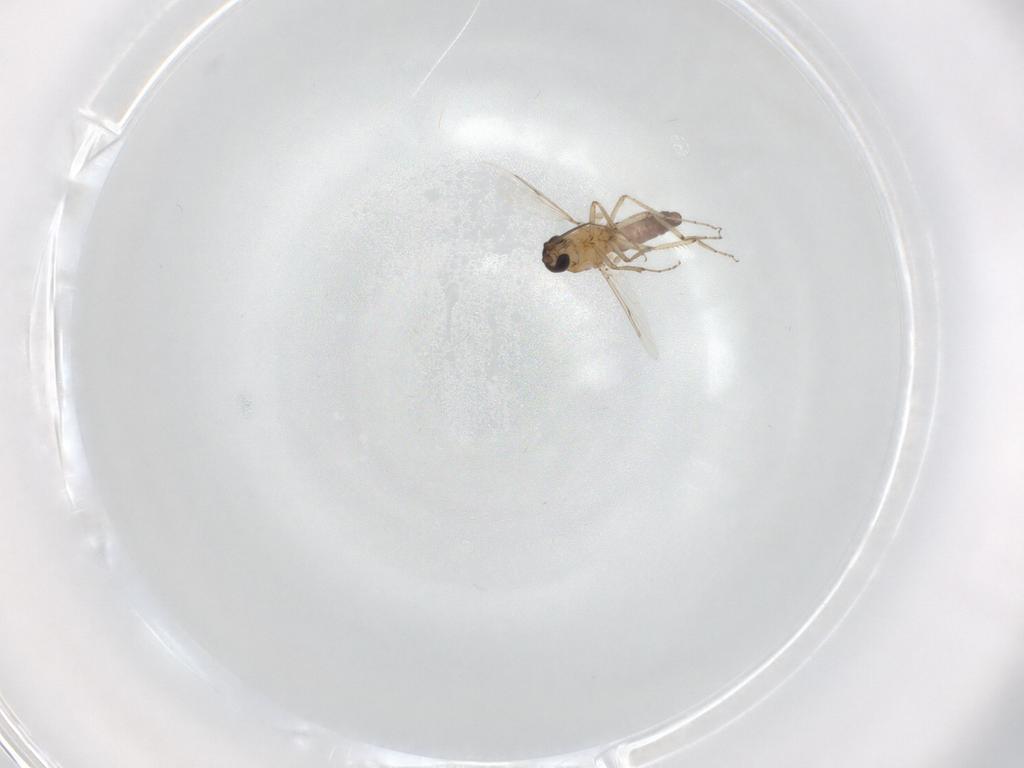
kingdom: Animalia
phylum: Arthropoda
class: Insecta
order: Diptera
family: Ceratopogonidae
